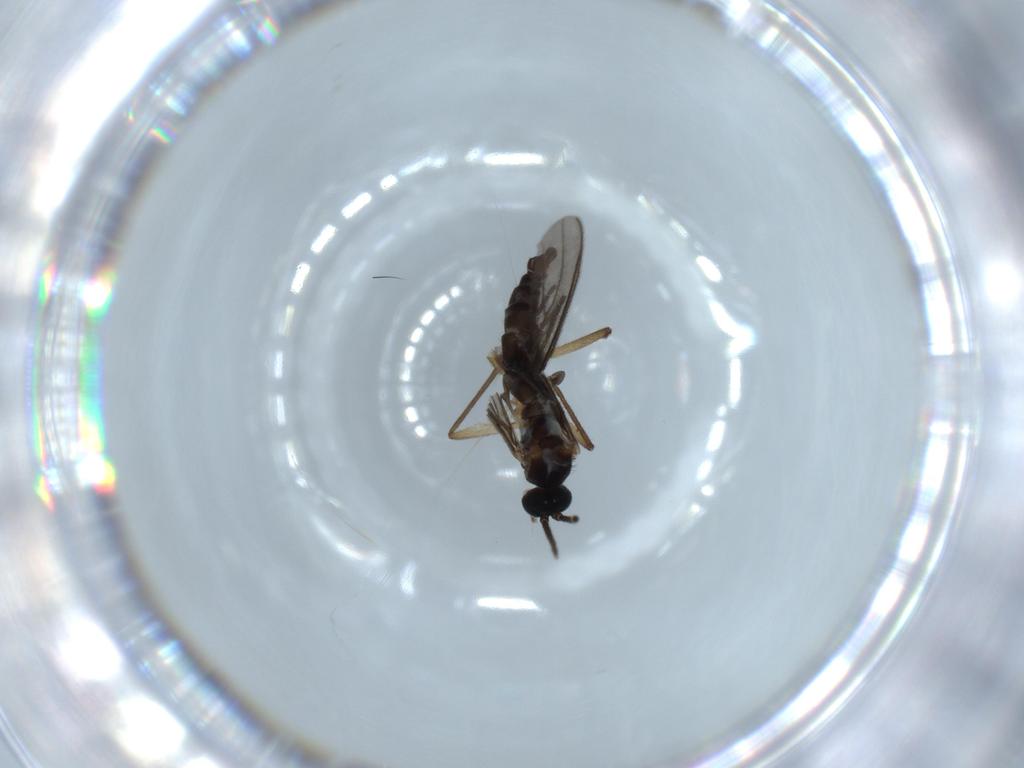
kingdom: Animalia
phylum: Arthropoda
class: Insecta
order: Diptera
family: Sciaridae
